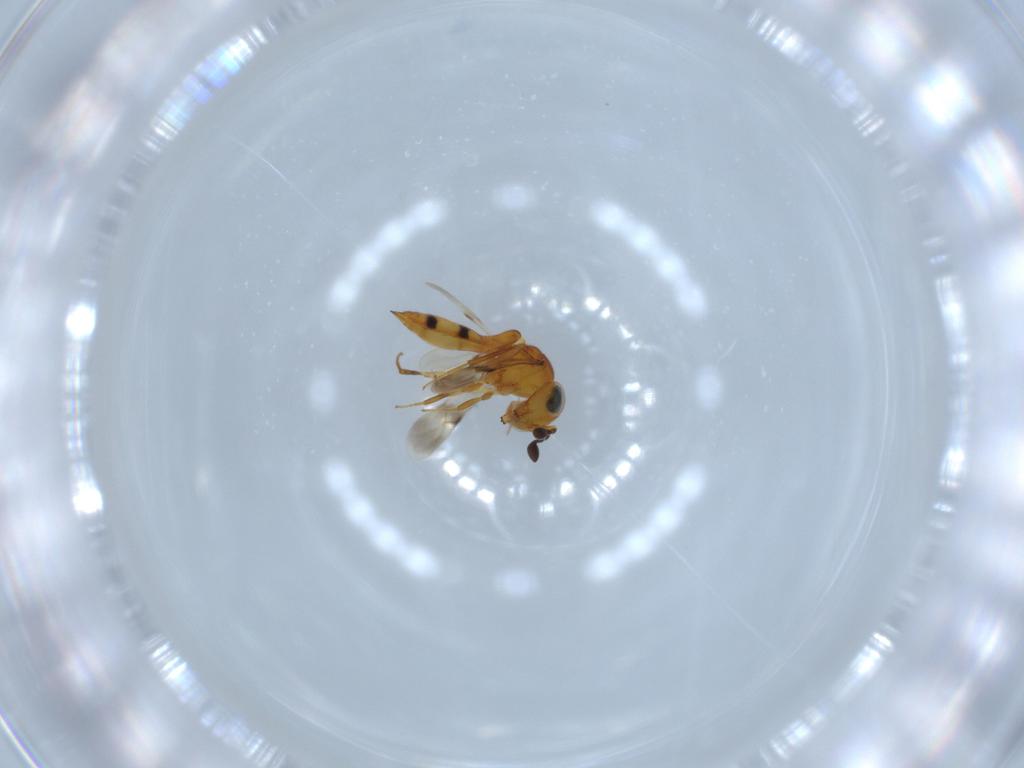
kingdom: Animalia
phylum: Arthropoda
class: Insecta
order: Hymenoptera
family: Scelionidae
